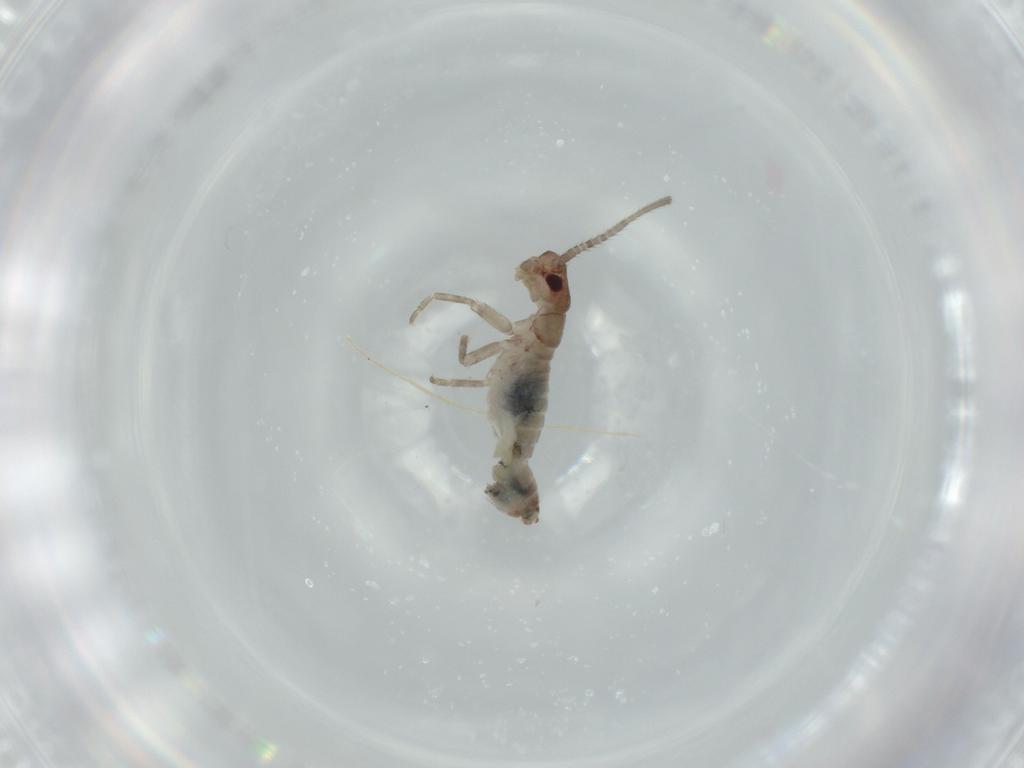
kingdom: Animalia
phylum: Arthropoda
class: Insecta
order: Orthoptera
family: Gryllidae
